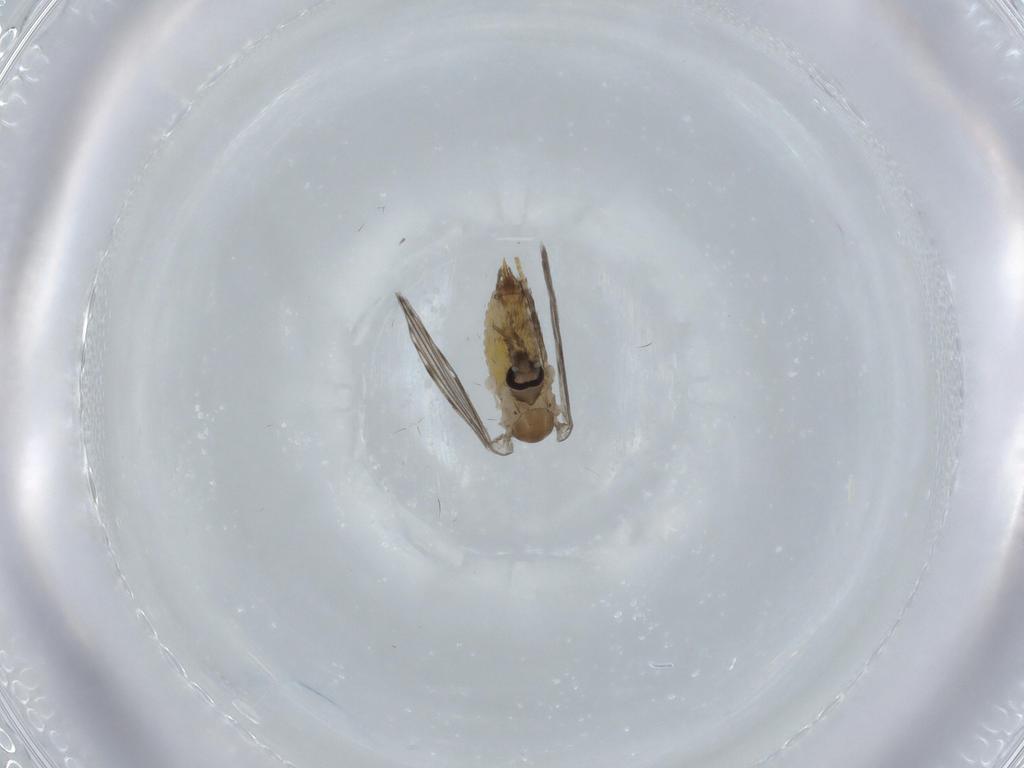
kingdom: Animalia
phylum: Arthropoda
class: Insecta
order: Diptera
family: Psychodidae
